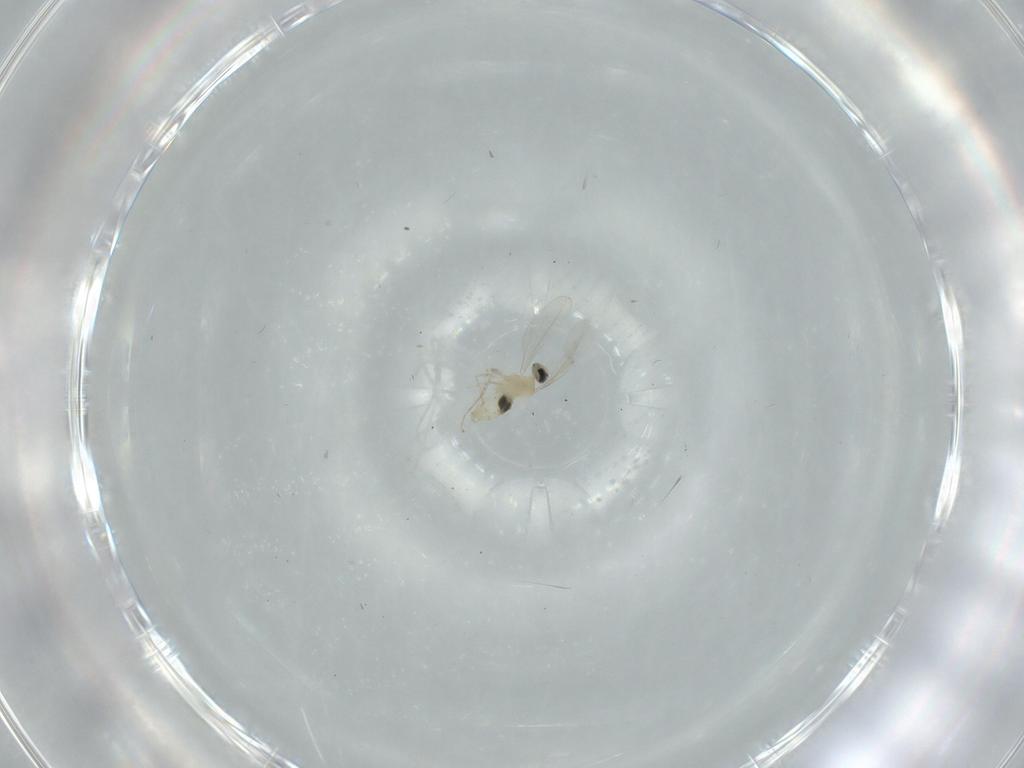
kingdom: Animalia
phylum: Arthropoda
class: Insecta
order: Diptera
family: Cecidomyiidae
